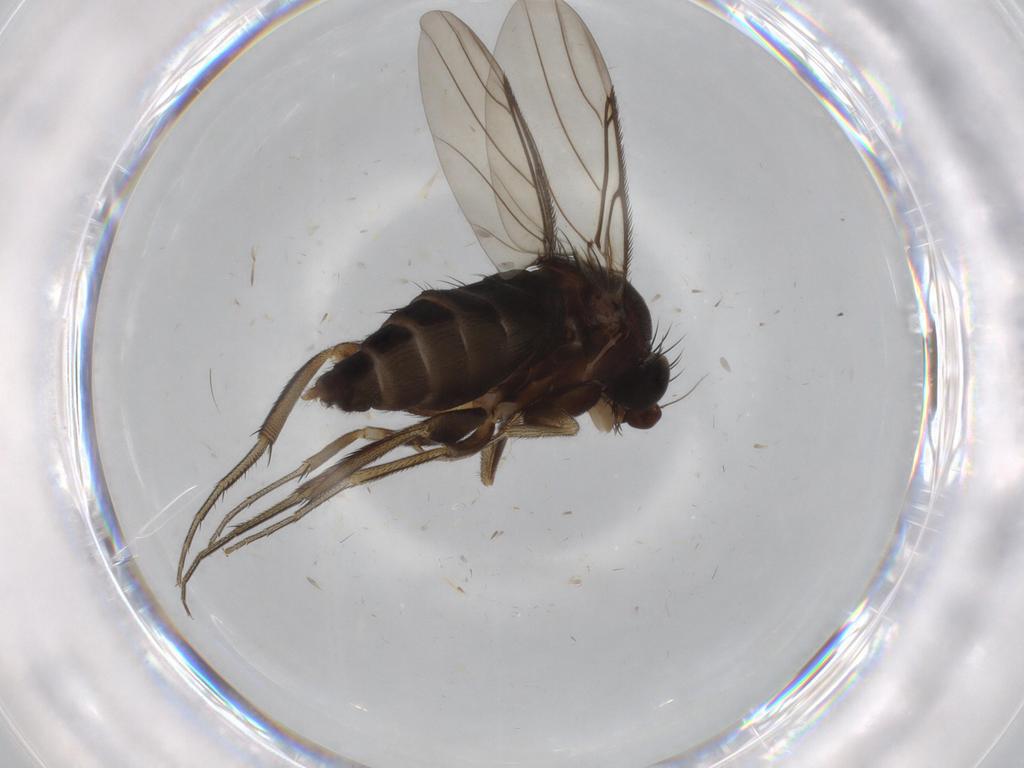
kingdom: Animalia
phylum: Arthropoda
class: Insecta
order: Diptera
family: Phoridae
